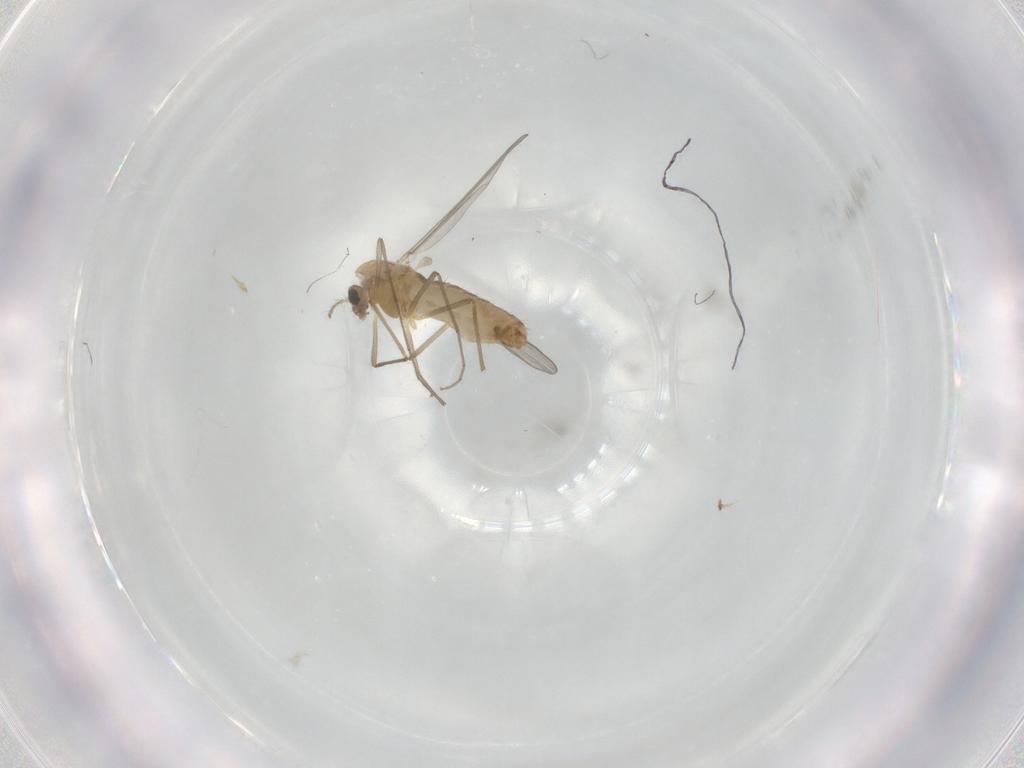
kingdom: Animalia
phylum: Arthropoda
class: Insecta
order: Diptera
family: Chironomidae
